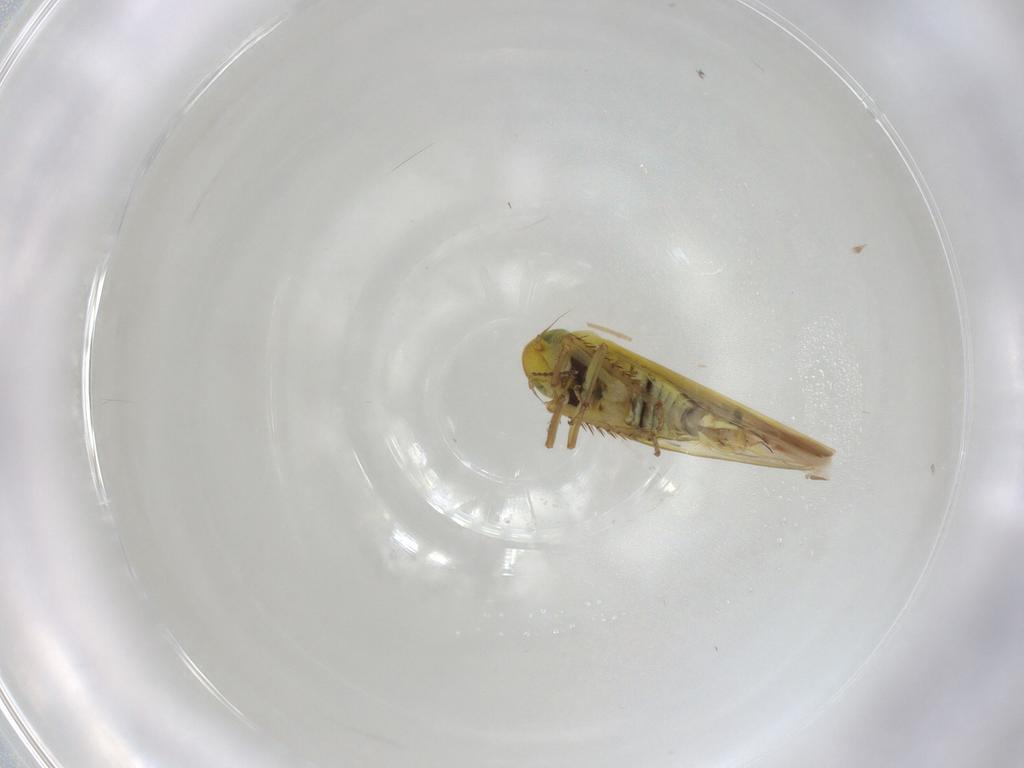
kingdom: Animalia
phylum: Arthropoda
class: Insecta
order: Hemiptera
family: Cicadellidae
